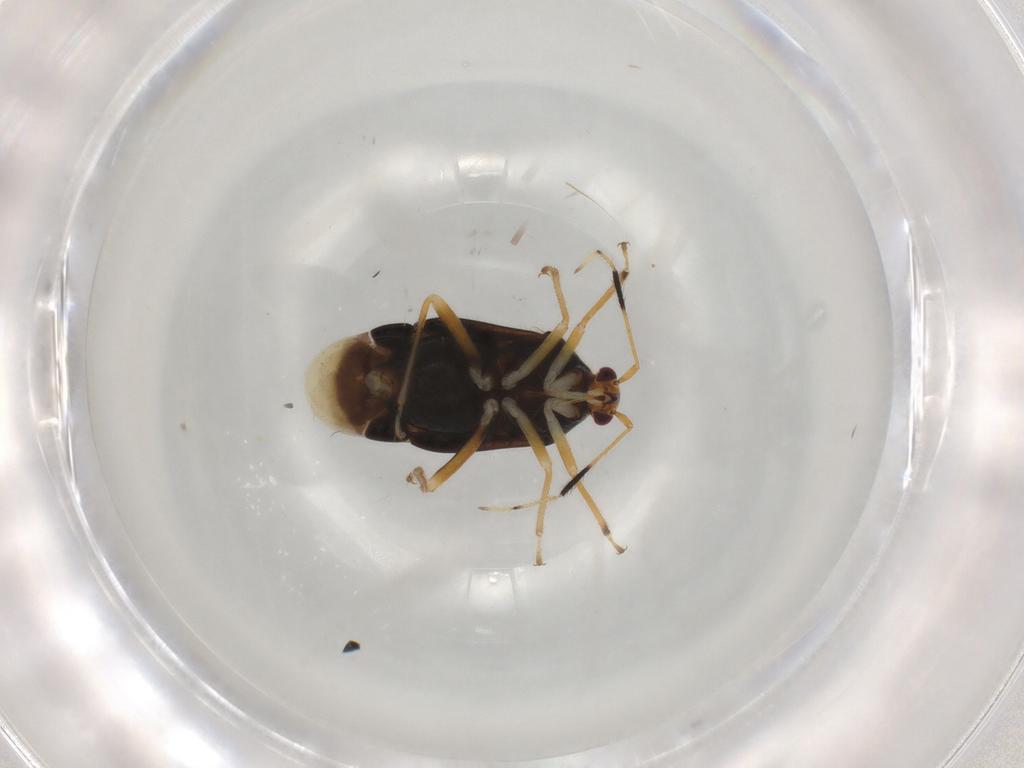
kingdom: Animalia
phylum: Arthropoda
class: Insecta
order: Hemiptera
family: Miridae
